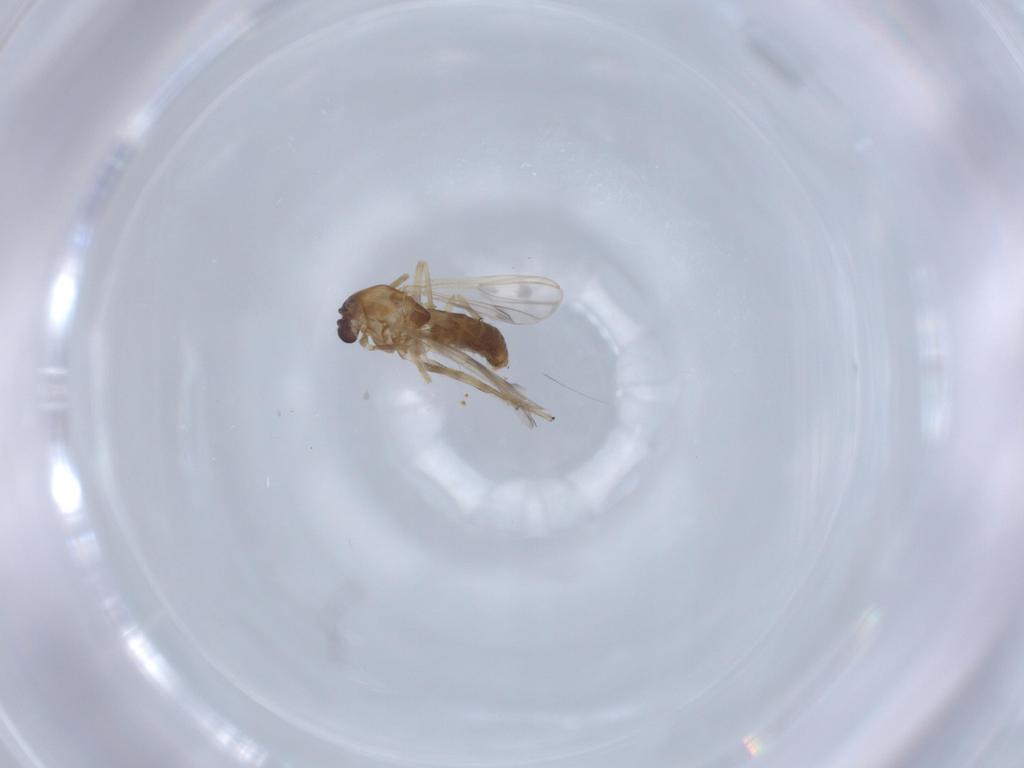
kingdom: Animalia
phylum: Arthropoda
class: Insecta
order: Diptera
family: Chironomidae
